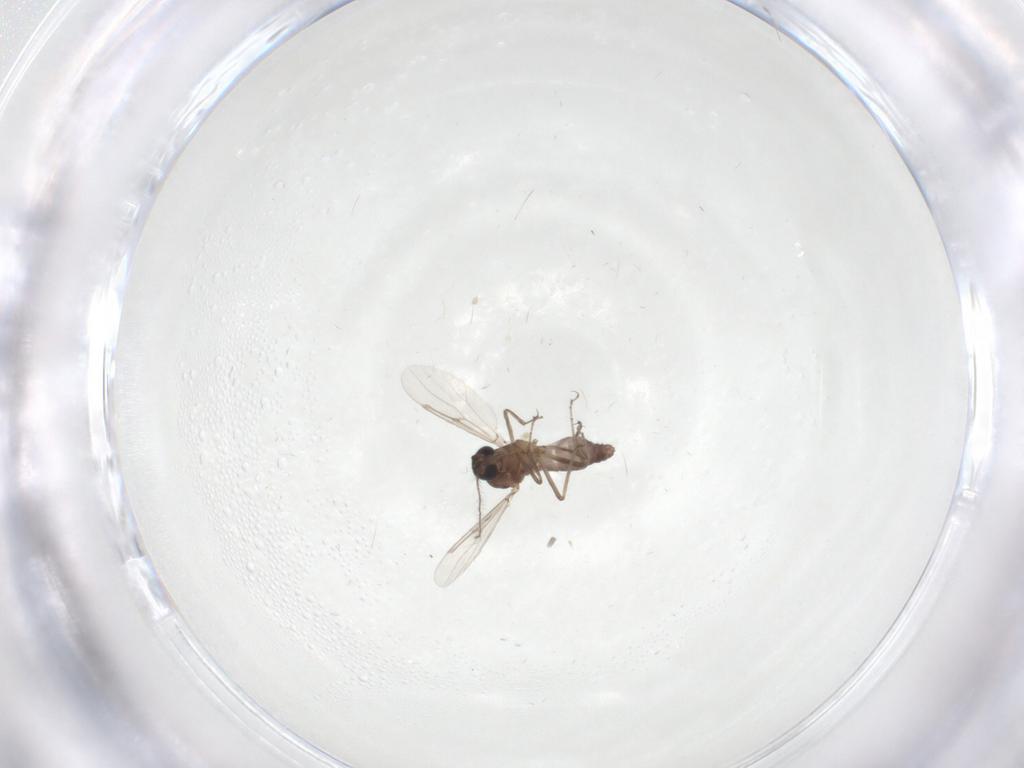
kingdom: Animalia
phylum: Arthropoda
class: Insecta
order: Diptera
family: Ceratopogonidae
